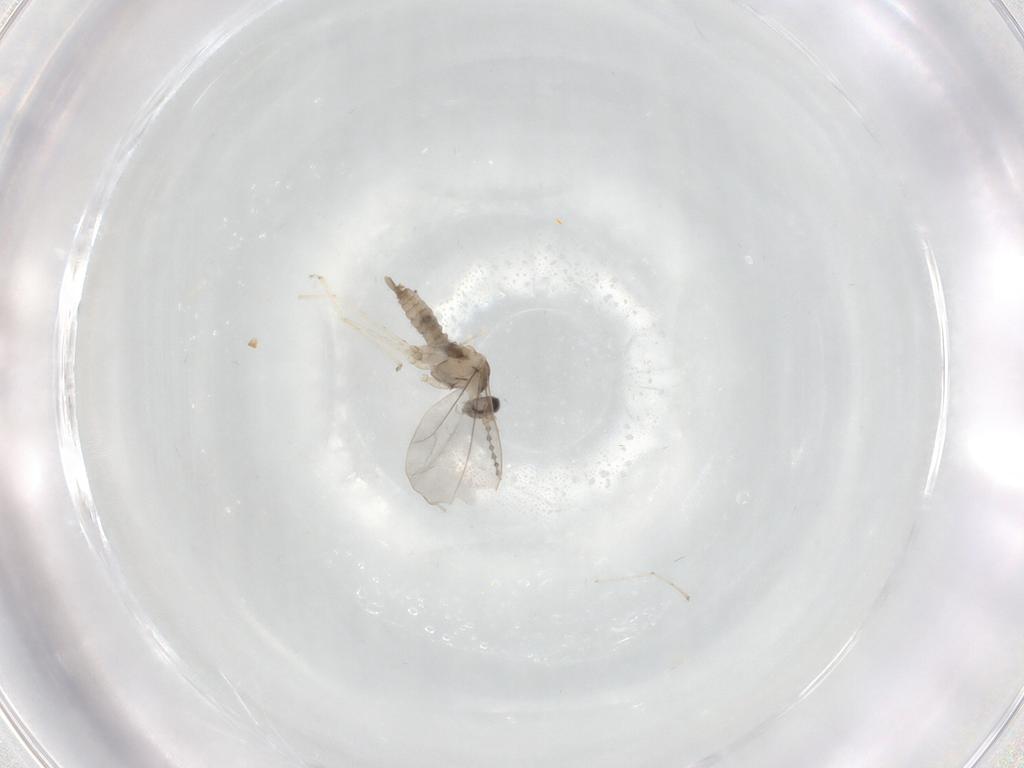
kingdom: Animalia
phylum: Arthropoda
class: Insecta
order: Diptera
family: Cecidomyiidae
